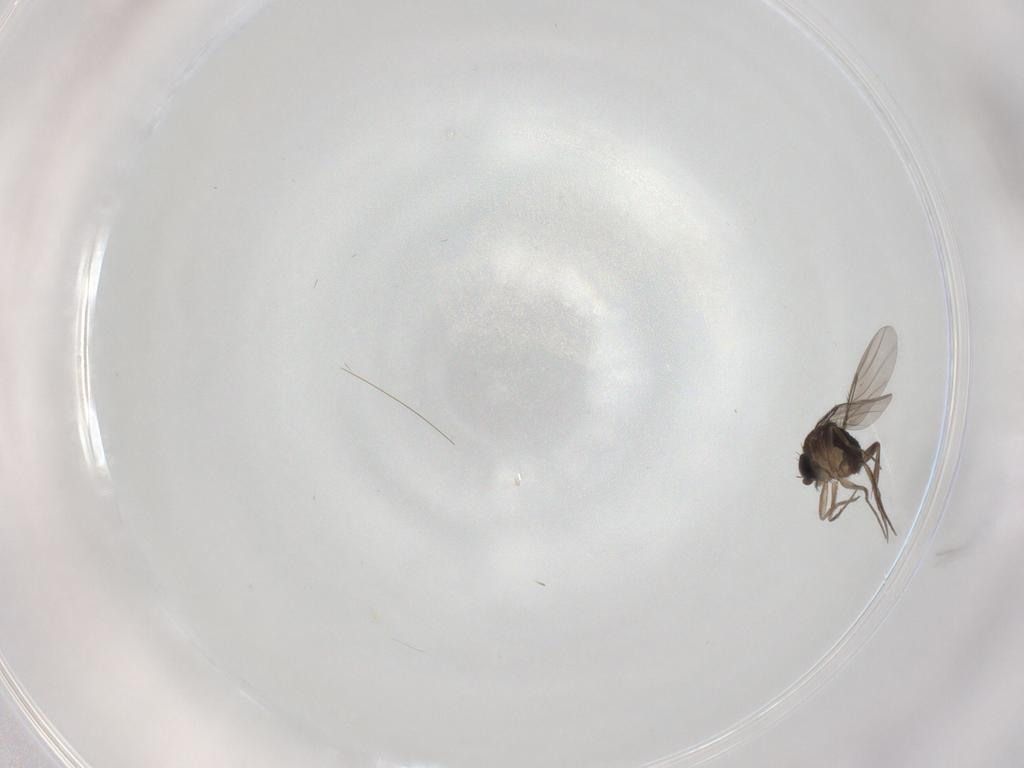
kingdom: Animalia
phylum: Arthropoda
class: Insecta
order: Diptera
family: Phoridae
